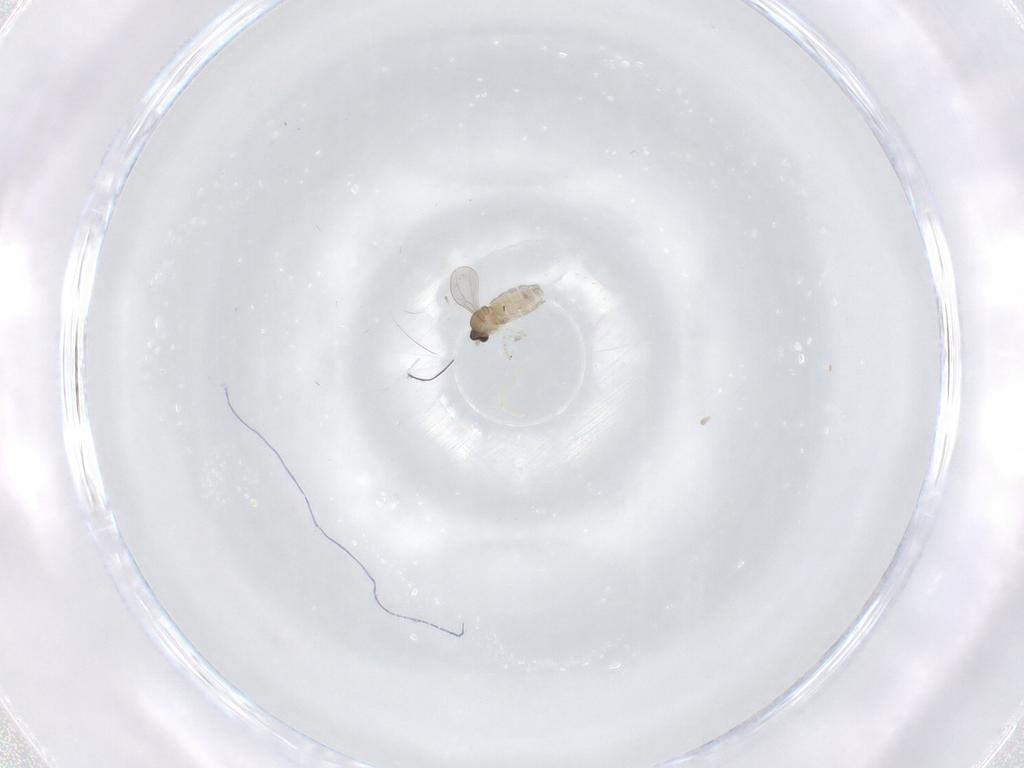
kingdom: Animalia
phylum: Arthropoda
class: Insecta
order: Diptera
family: Cecidomyiidae
